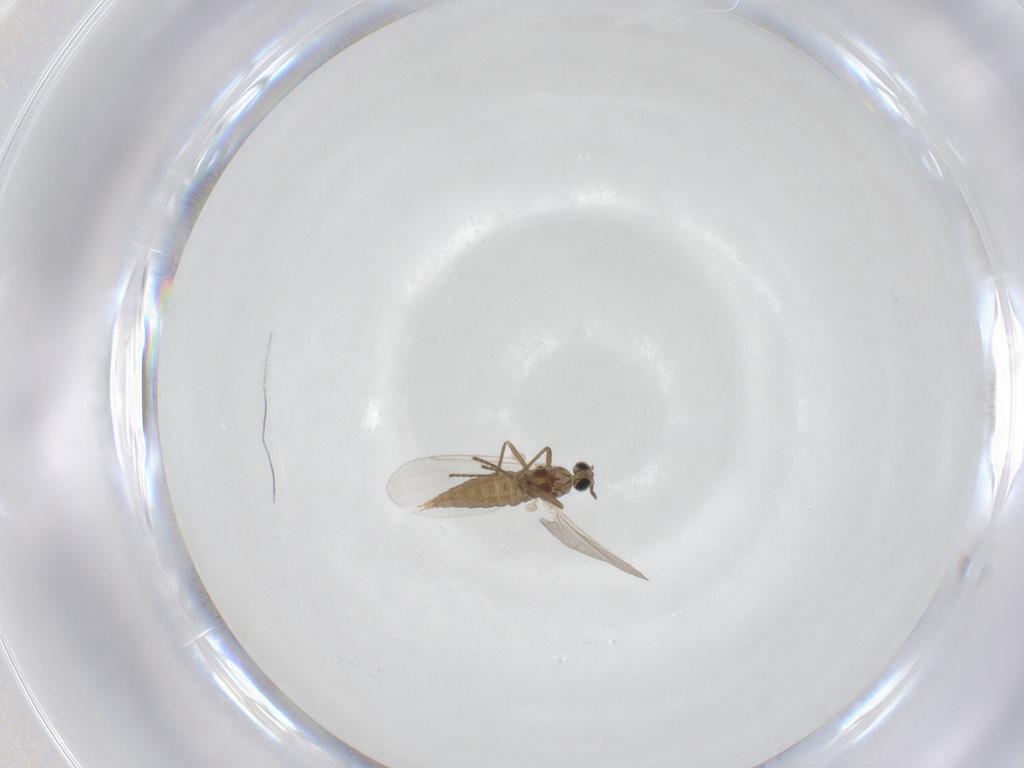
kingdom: Animalia
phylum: Arthropoda
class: Insecta
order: Diptera
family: Cecidomyiidae
